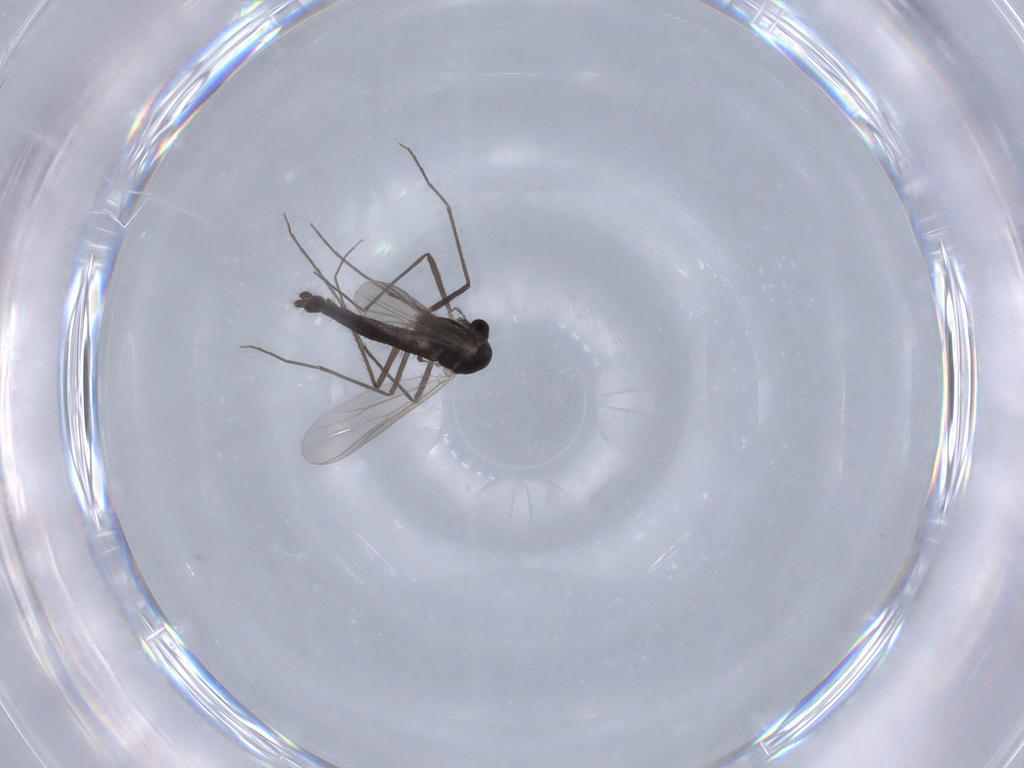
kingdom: Animalia
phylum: Arthropoda
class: Insecta
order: Diptera
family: Chironomidae
